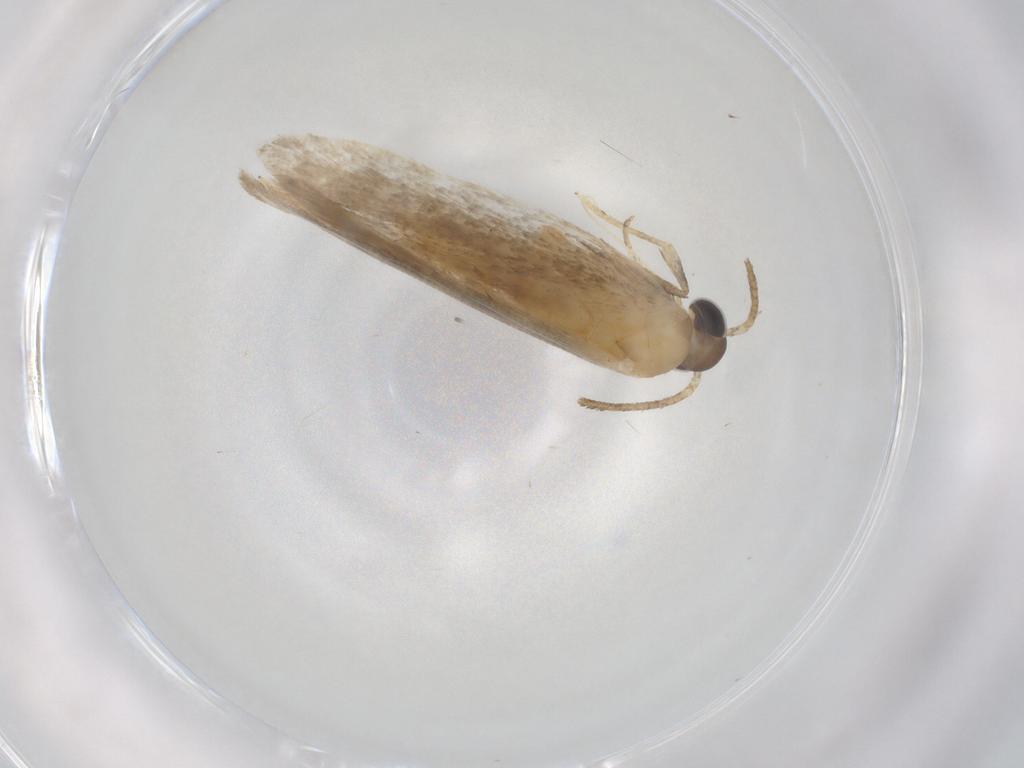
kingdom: Animalia
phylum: Arthropoda
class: Insecta
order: Lepidoptera
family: Autostichidae
